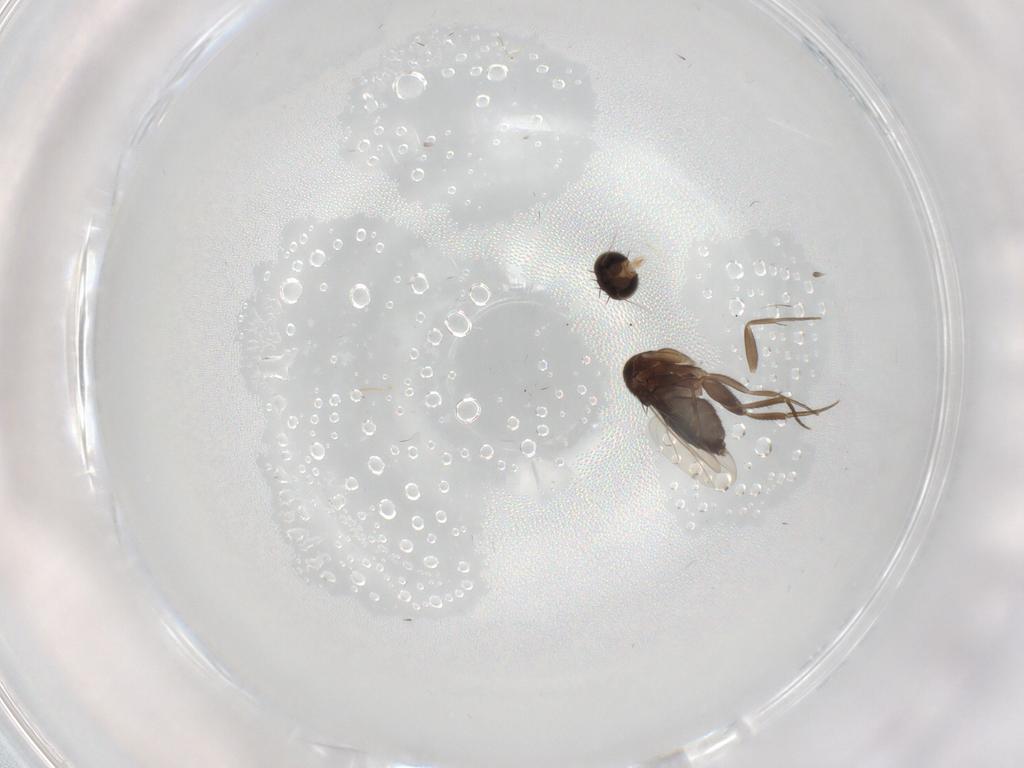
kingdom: Animalia
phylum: Arthropoda
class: Insecta
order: Diptera
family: Phoridae
